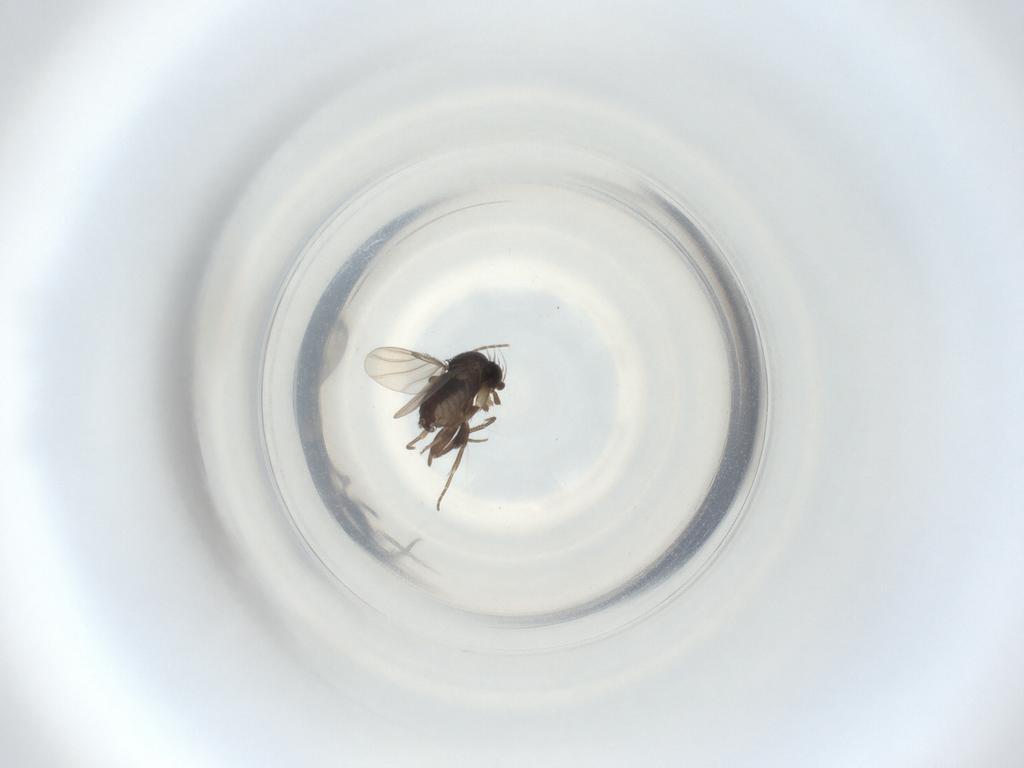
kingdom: Animalia
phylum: Arthropoda
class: Insecta
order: Diptera
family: Phoridae
